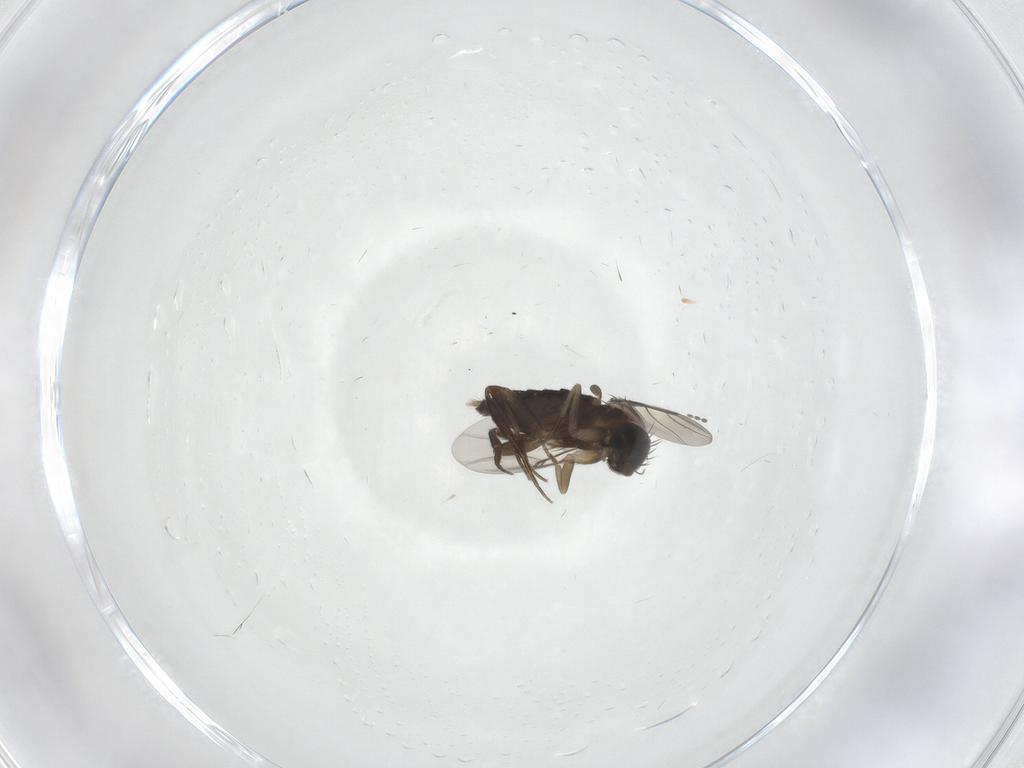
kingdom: Animalia
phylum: Arthropoda
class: Insecta
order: Diptera
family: Cecidomyiidae
